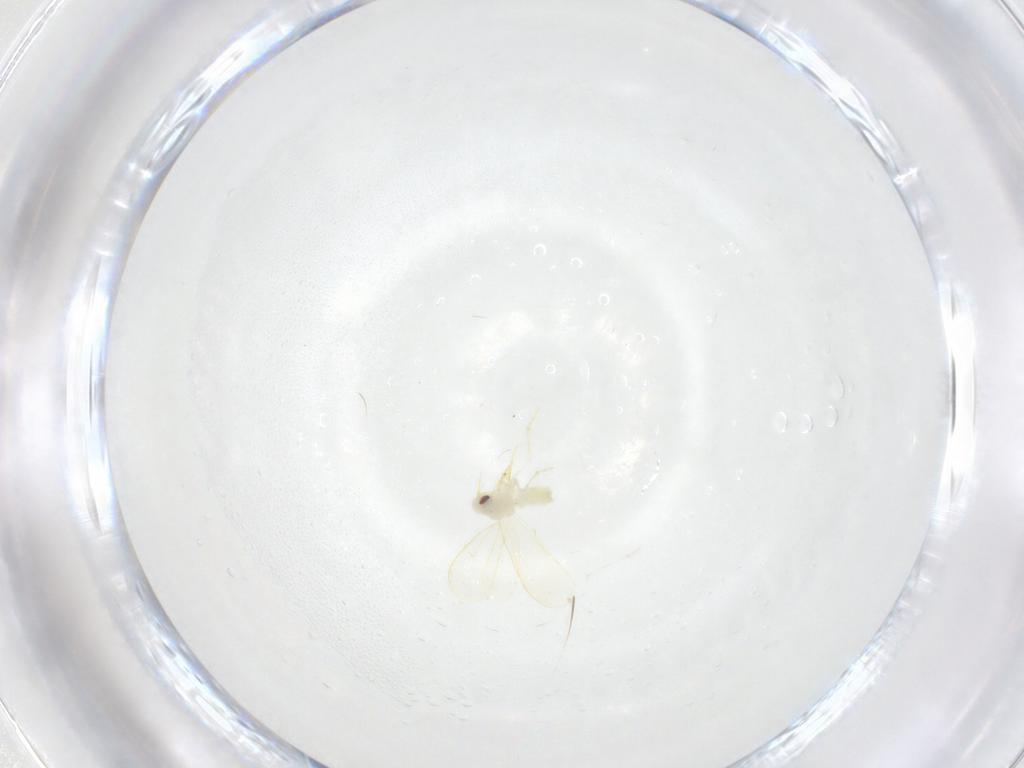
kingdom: Animalia
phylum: Arthropoda
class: Insecta
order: Hemiptera
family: Aleyrodidae
